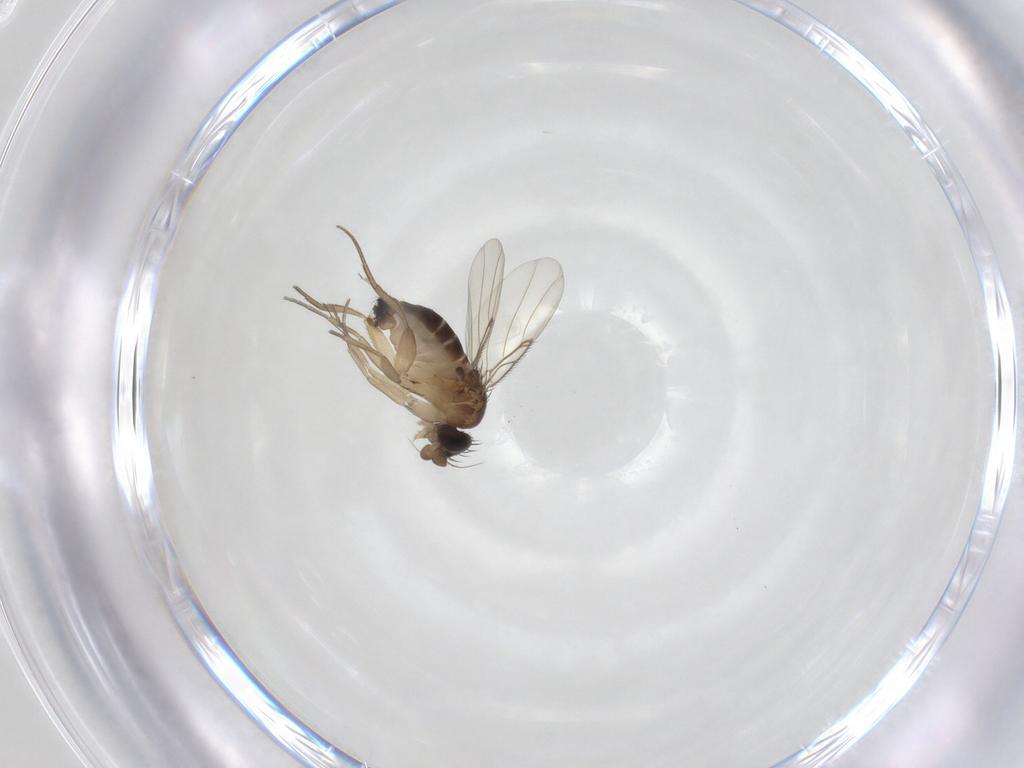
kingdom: Animalia
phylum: Arthropoda
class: Insecta
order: Diptera
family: Phoridae
